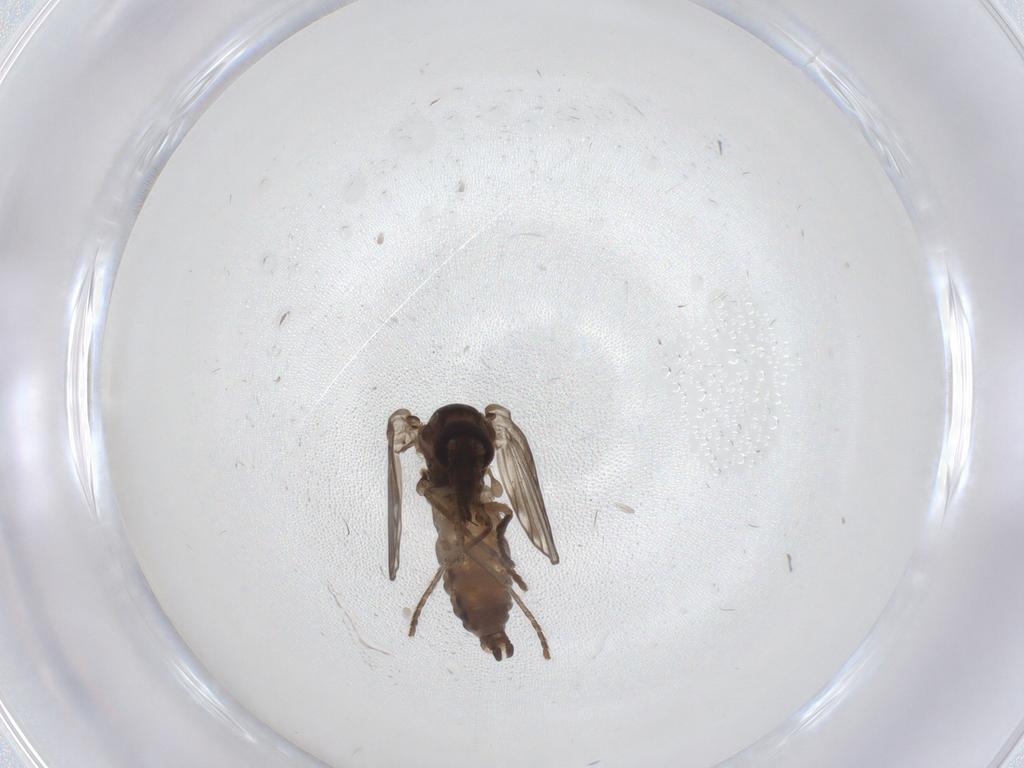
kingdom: Animalia
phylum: Arthropoda
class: Insecta
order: Diptera
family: Psychodidae
